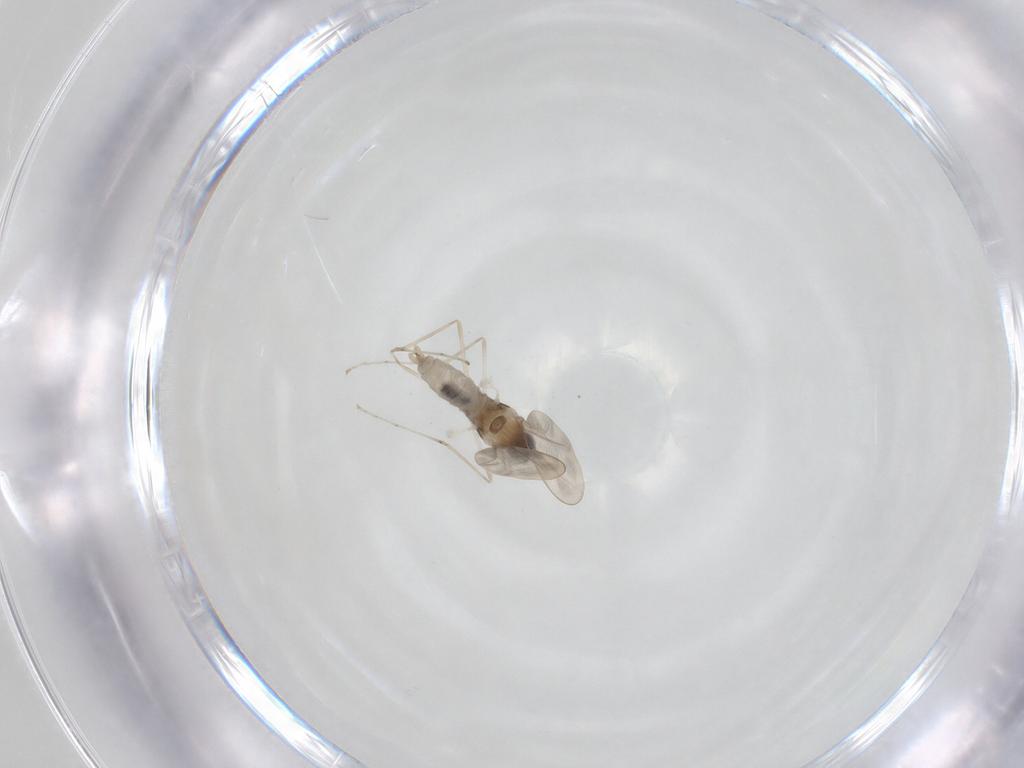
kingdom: Animalia
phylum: Arthropoda
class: Insecta
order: Diptera
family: Cecidomyiidae
